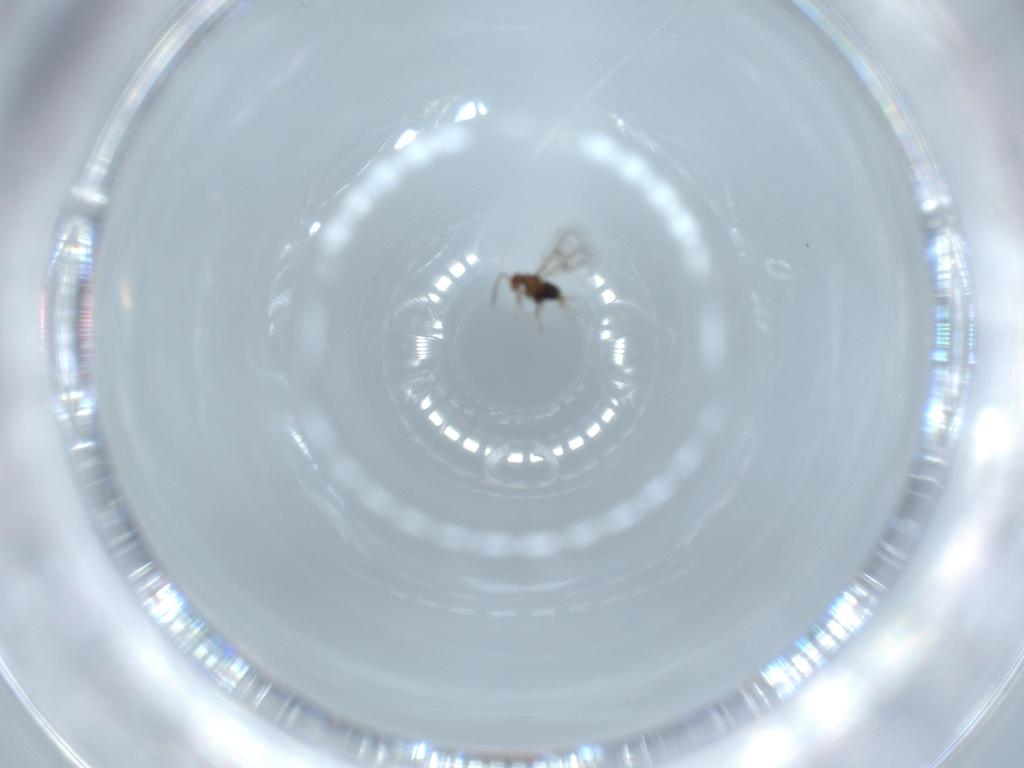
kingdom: Animalia
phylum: Arthropoda
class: Insecta
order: Hymenoptera
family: Trichogrammatidae
